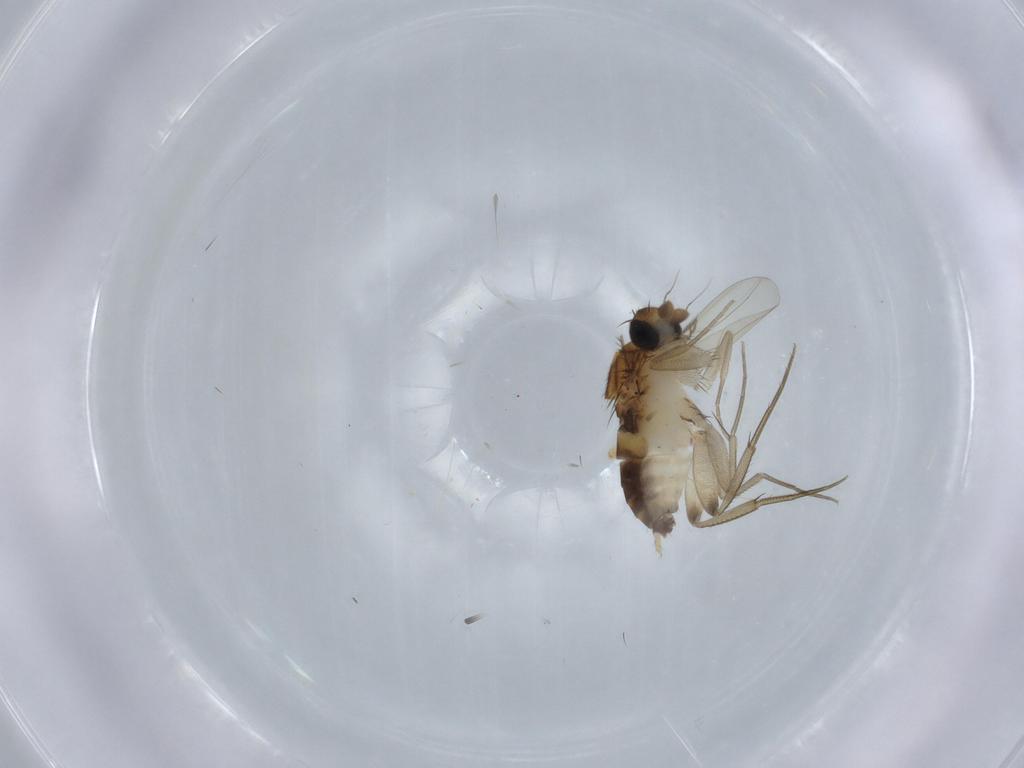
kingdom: Animalia
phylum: Arthropoda
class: Insecta
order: Diptera
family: Phoridae
